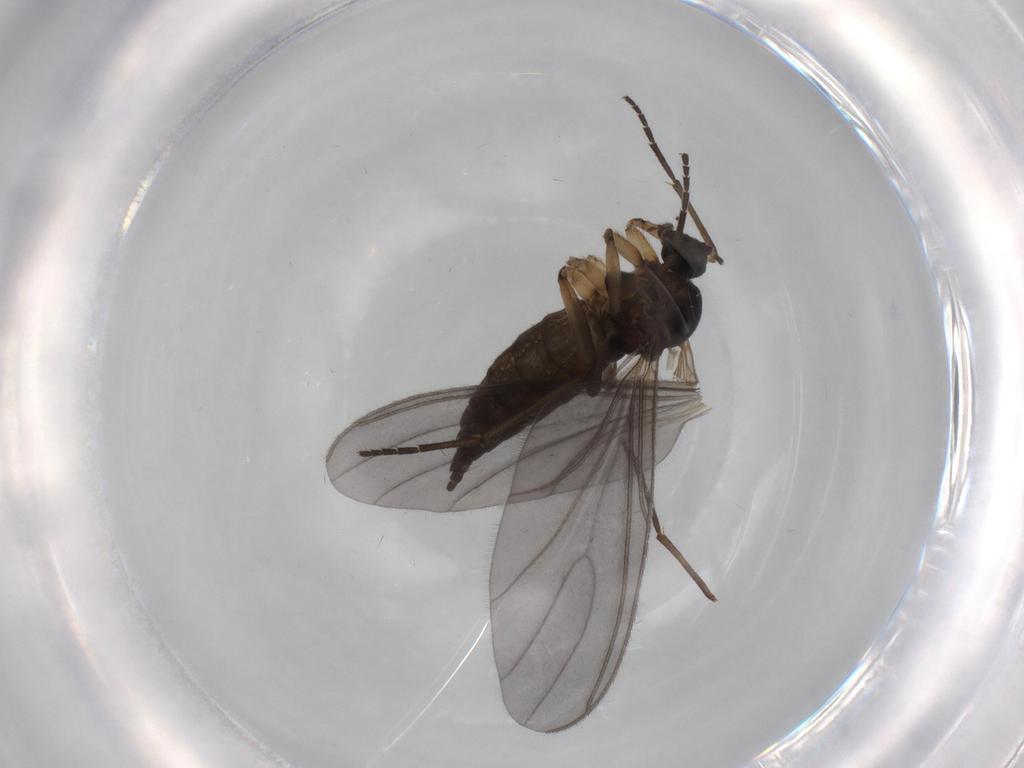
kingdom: Animalia
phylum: Arthropoda
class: Insecta
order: Diptera
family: Sciaridae
